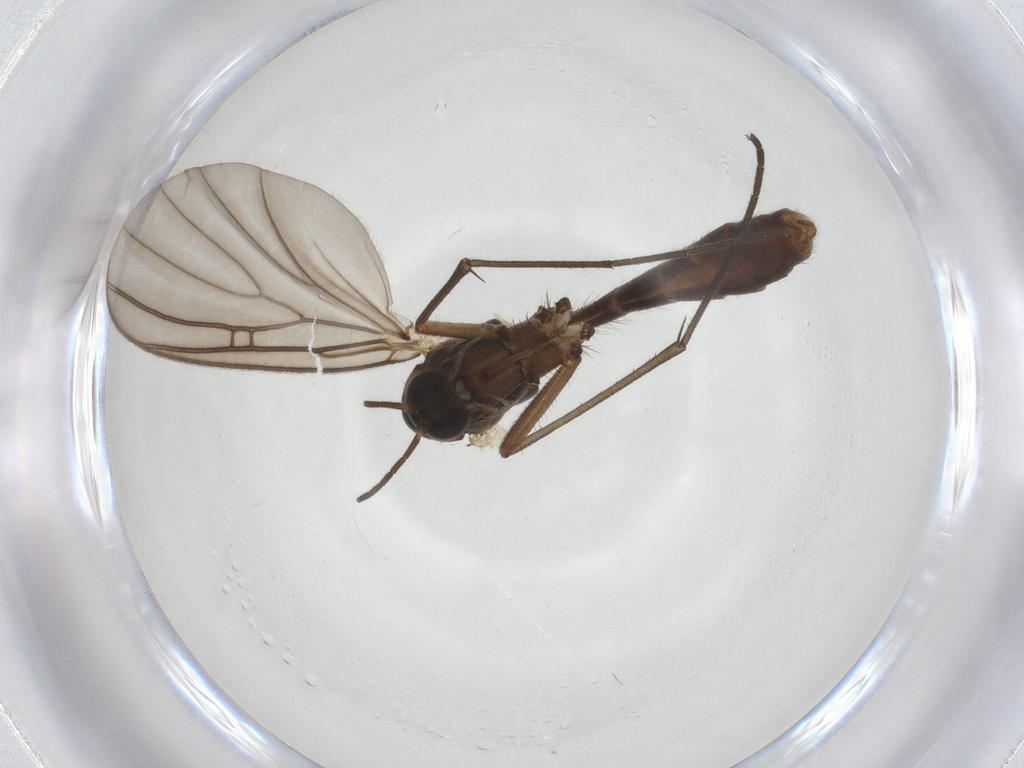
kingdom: Animalia
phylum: Arthropoda
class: Insecta
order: Diptera
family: Mycetophilidae
